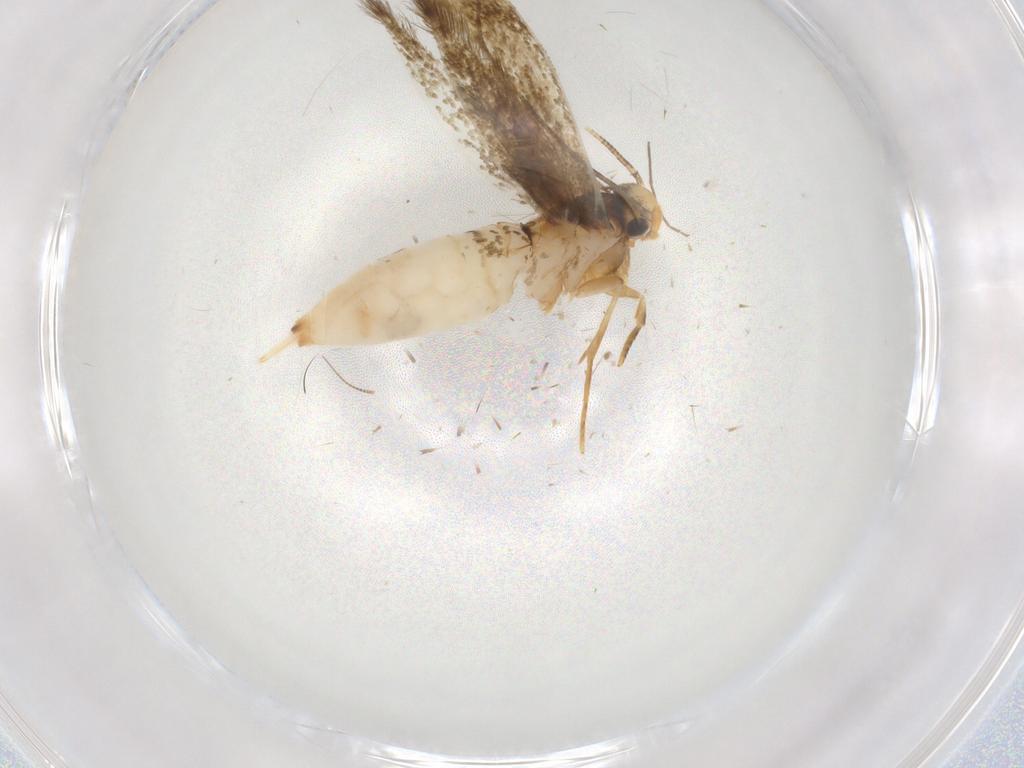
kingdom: Animalia
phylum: Arthropoda
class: Insecta
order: Lepidoptera
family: Tineidae
